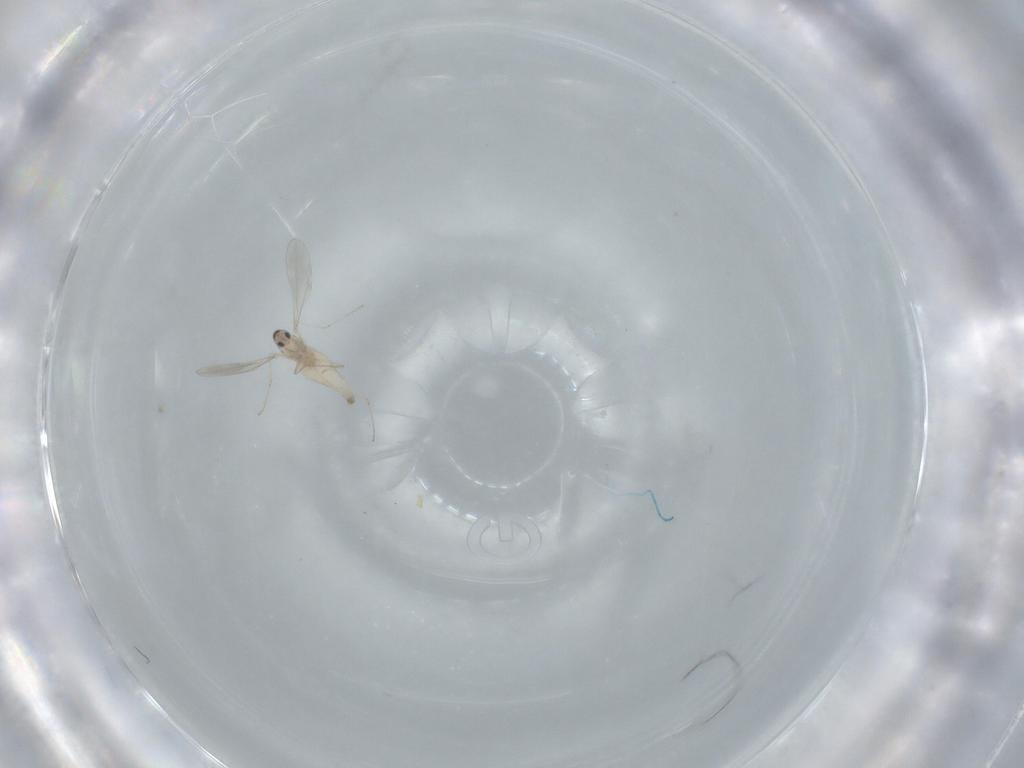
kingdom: Animalia
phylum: Arthropoda
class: Insecta
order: Diptera
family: Cecidomyiidae
